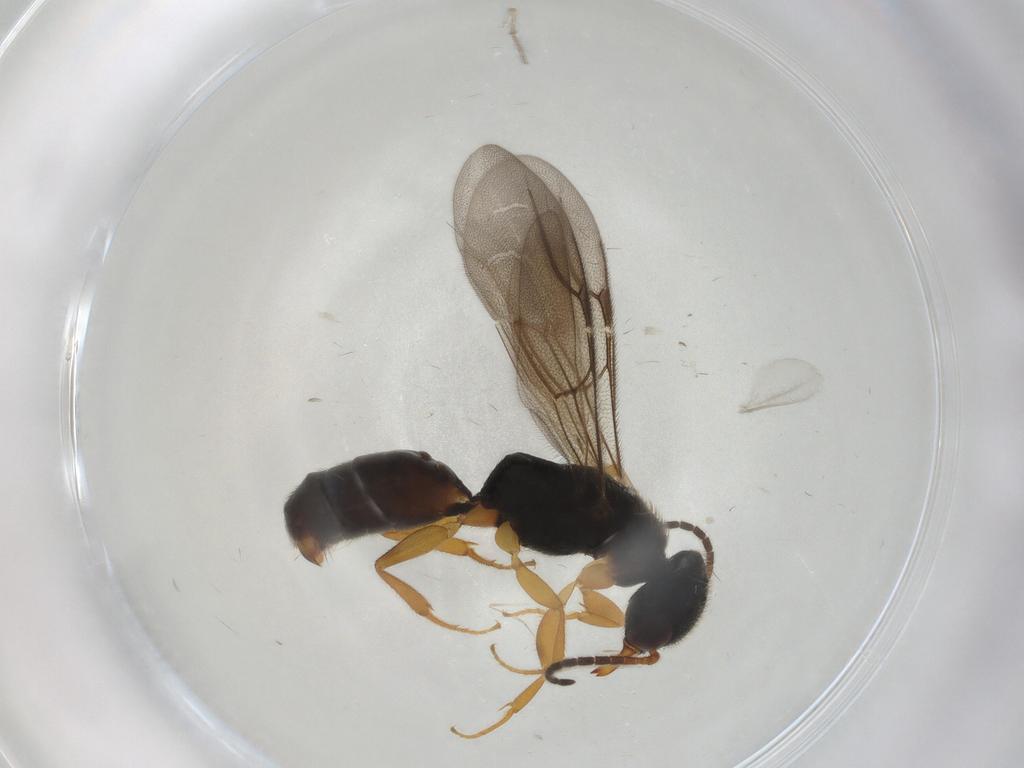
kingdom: Animalia
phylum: Arthropoda
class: Insecta
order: Hymenoptera
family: Bethylidae
